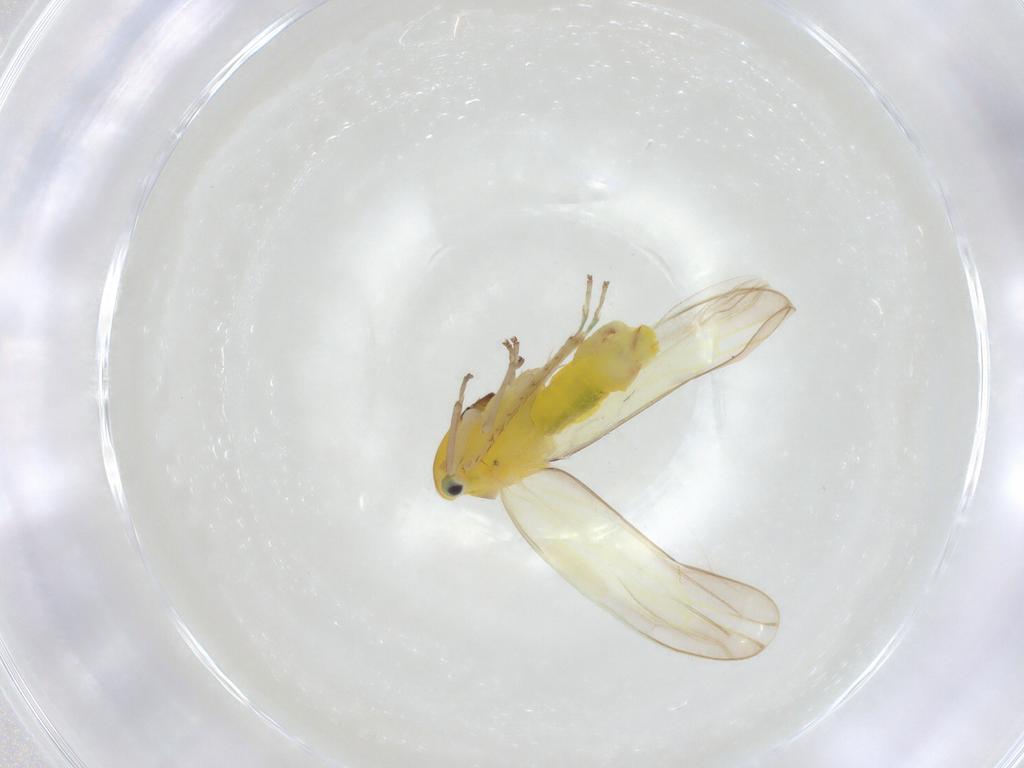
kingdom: Animalia
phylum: Arthropoda
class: Insecta
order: Hemiptera
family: Cicadellidae
